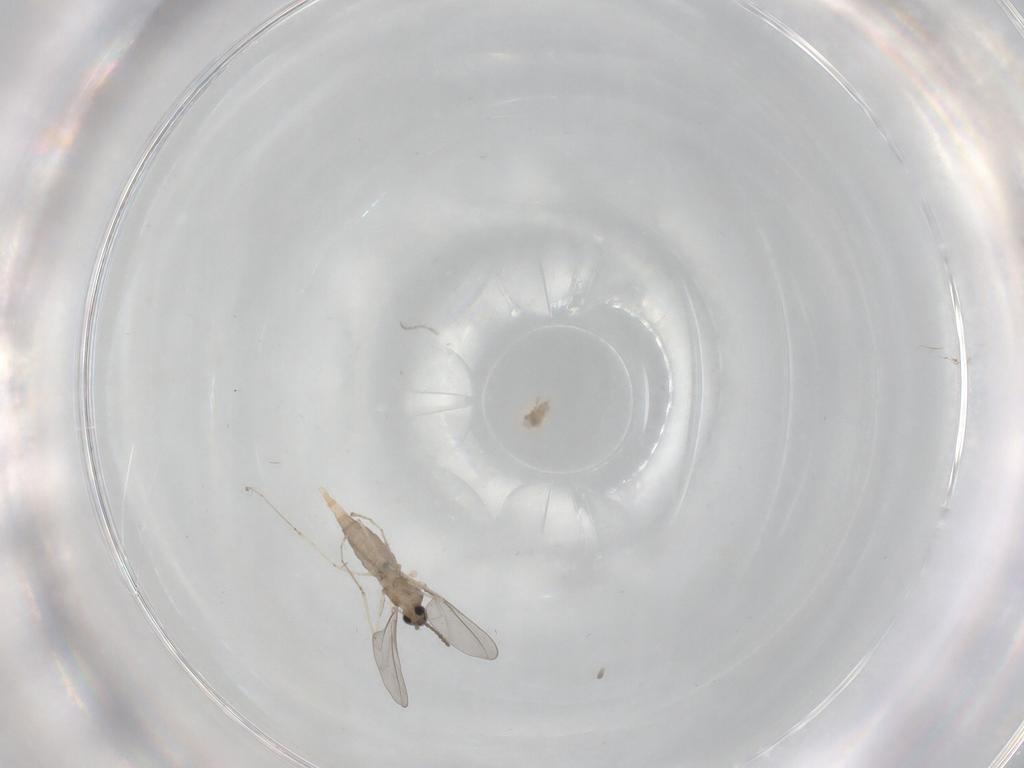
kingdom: Animalia
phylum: Arthropoda
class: Insecta
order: Diptera
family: Cecidomyiidae
